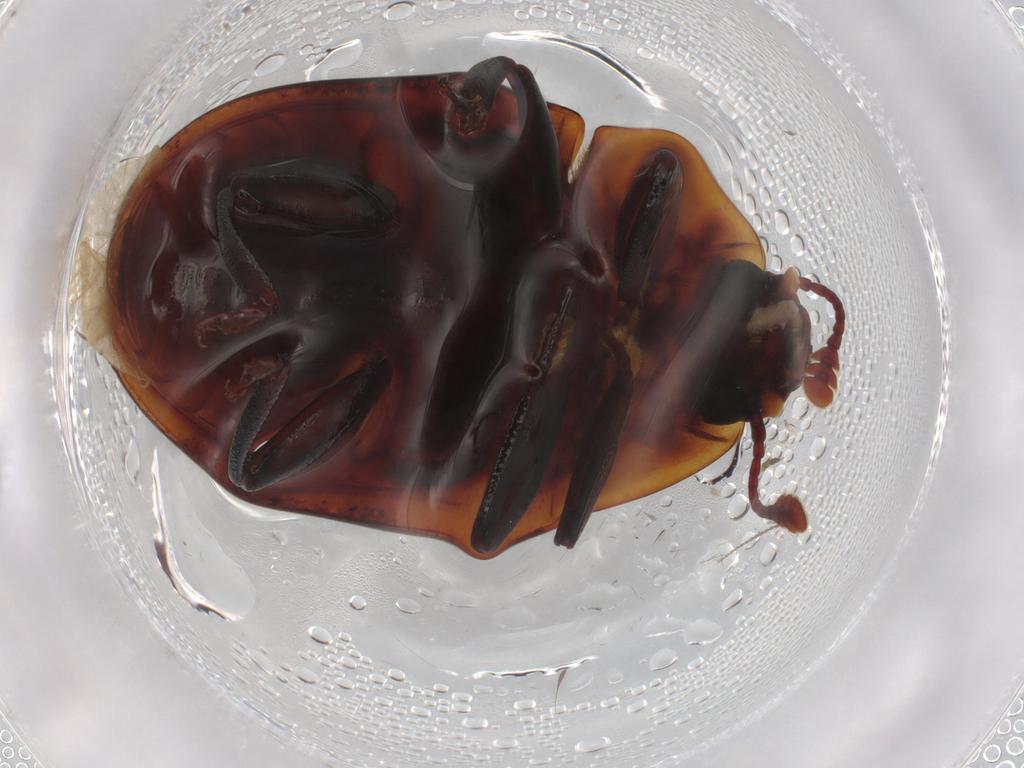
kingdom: Animalia
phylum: Arthropoda
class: Insecta
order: Coleoptera
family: Zopheridae
